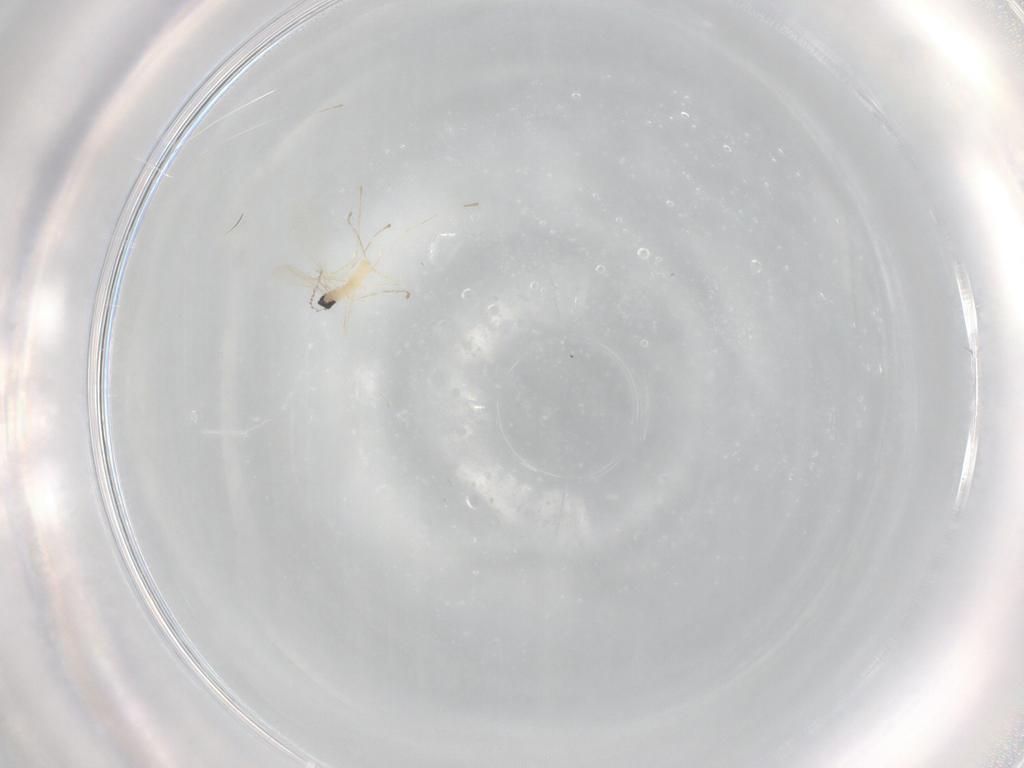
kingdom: Animalia
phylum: Arthropoda
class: Insecta
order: Diptera
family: Cecidomyiidae
